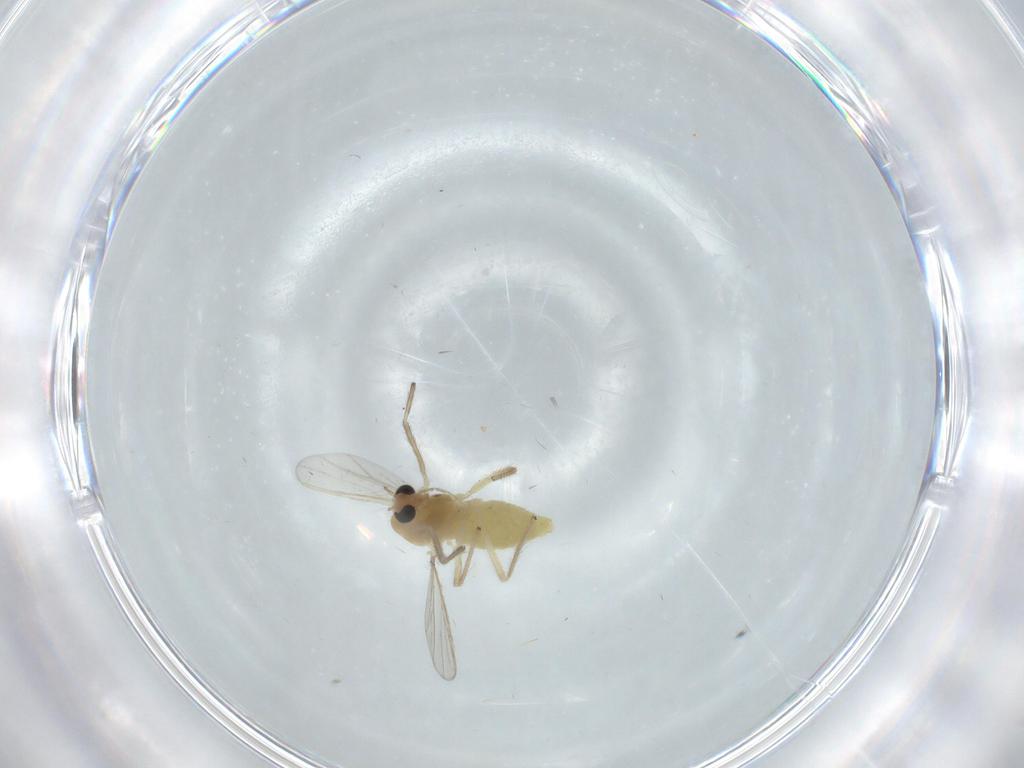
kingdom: Animalia
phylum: Arthropoda
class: Insecta
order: Diptera
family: Chironomidae
